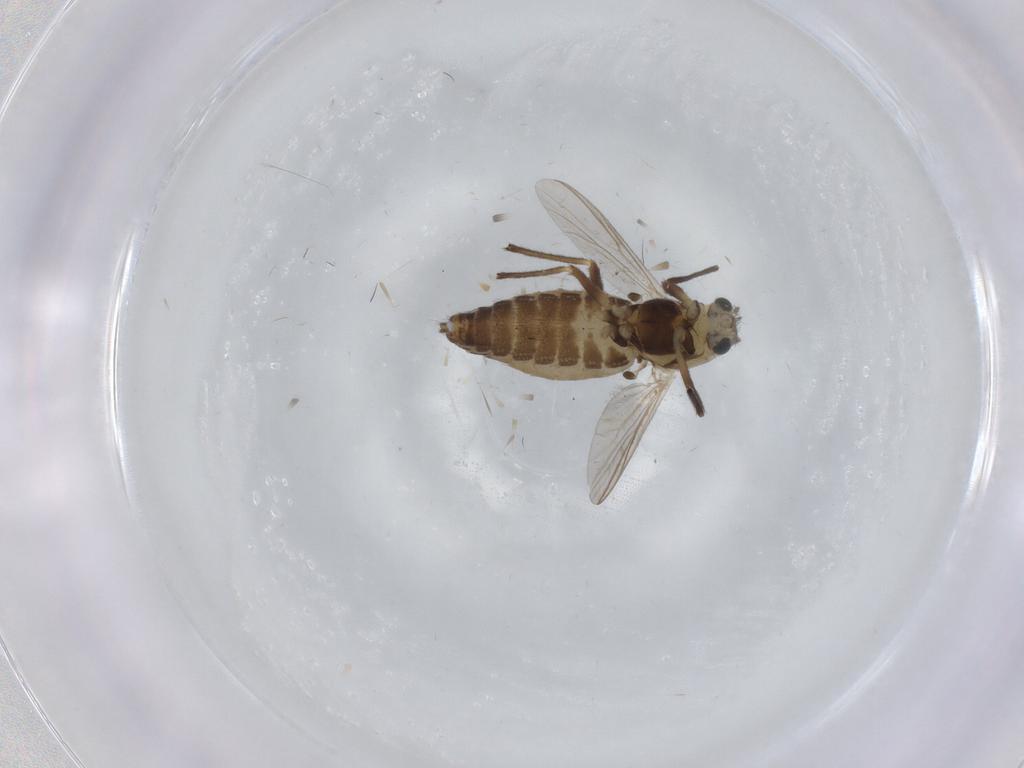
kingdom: Animalia
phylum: Arthropoda
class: Insecta
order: Diptera
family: Chironomidae
